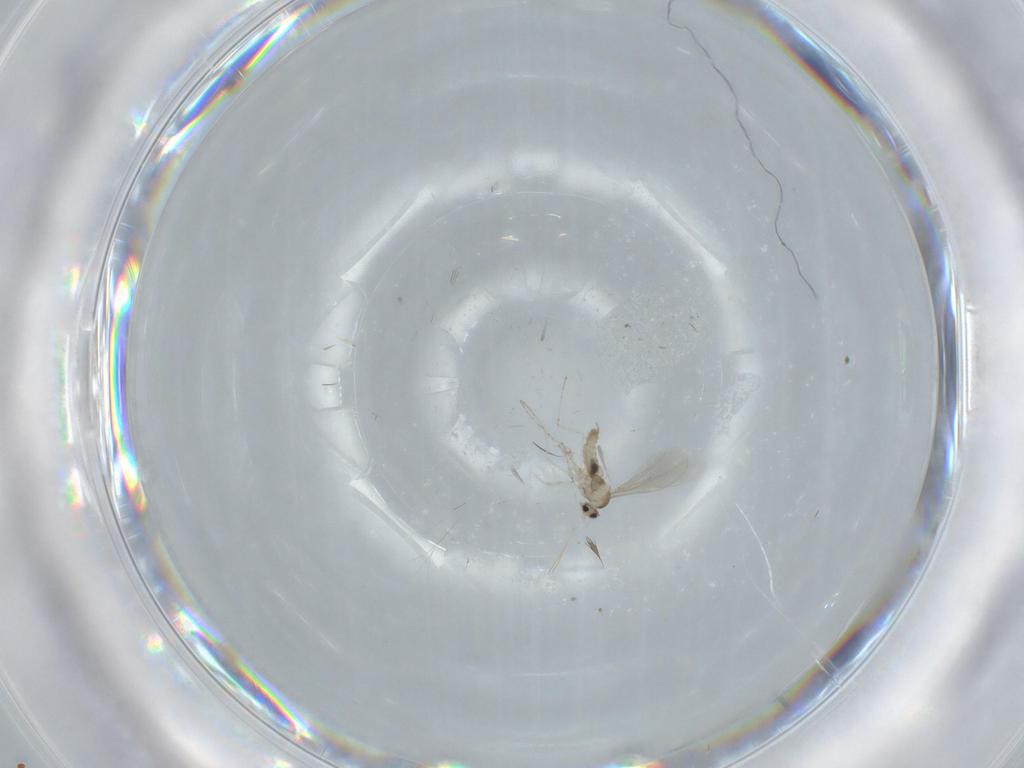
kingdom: Animalia
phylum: Arthropoda
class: Insecta
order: Diptera
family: Cecidomyiidae
